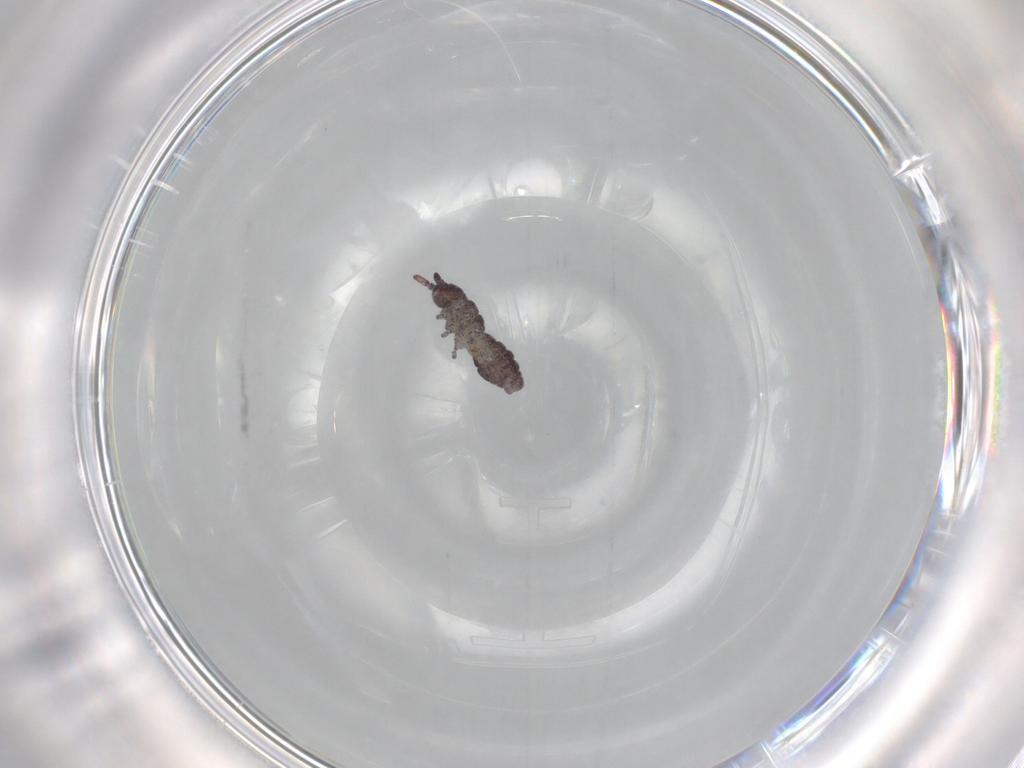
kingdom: Animalia
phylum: Arthropoda
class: Collembola
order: Poduromorpha
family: Hypogastruridae
